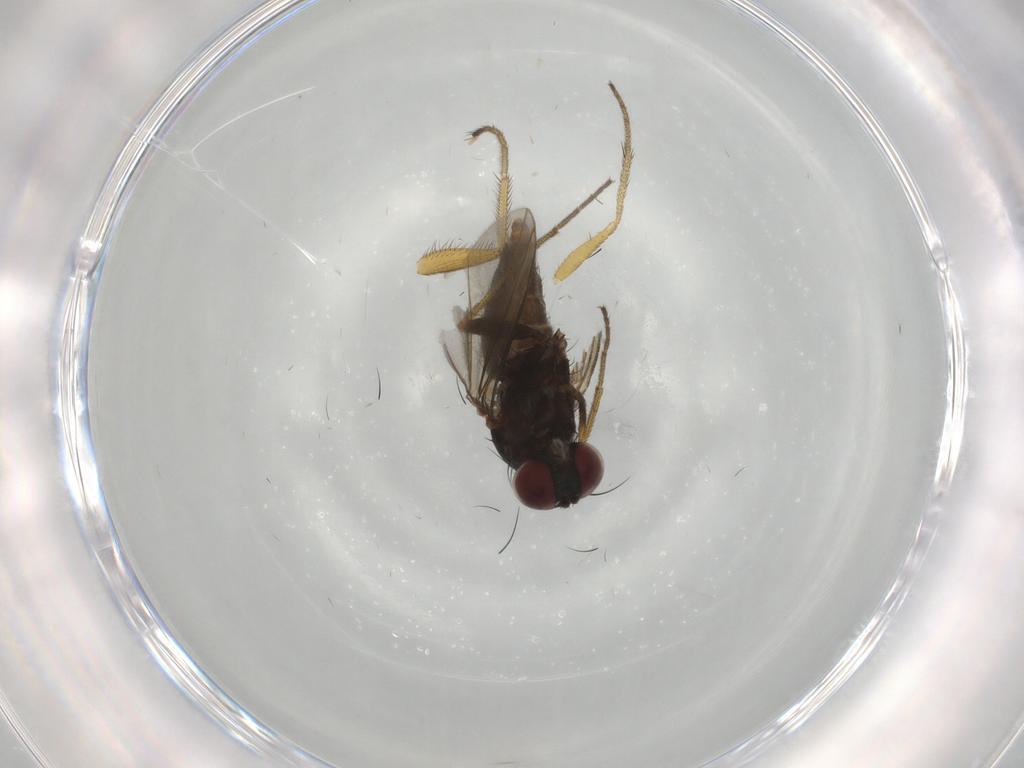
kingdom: Animalia
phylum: Arthropoda
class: Insecta
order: Diptera
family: Dolichopodidae
